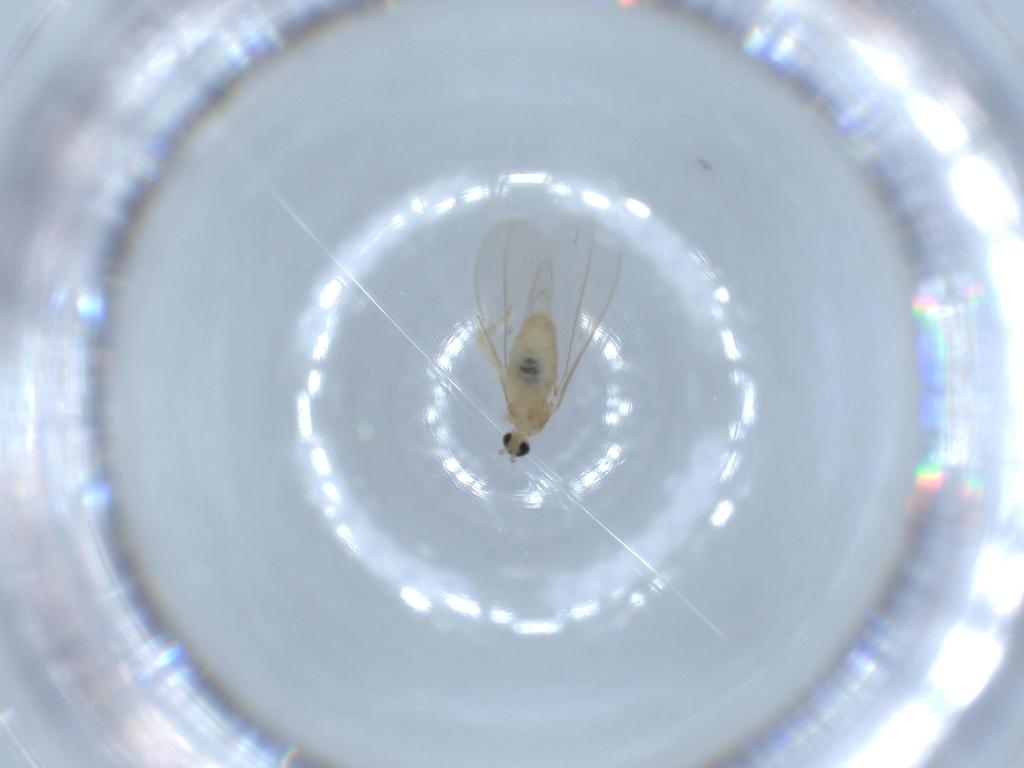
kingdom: Animalia
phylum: Arthropoda
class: Insecta
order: Diptera
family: Cecidomyiidae
